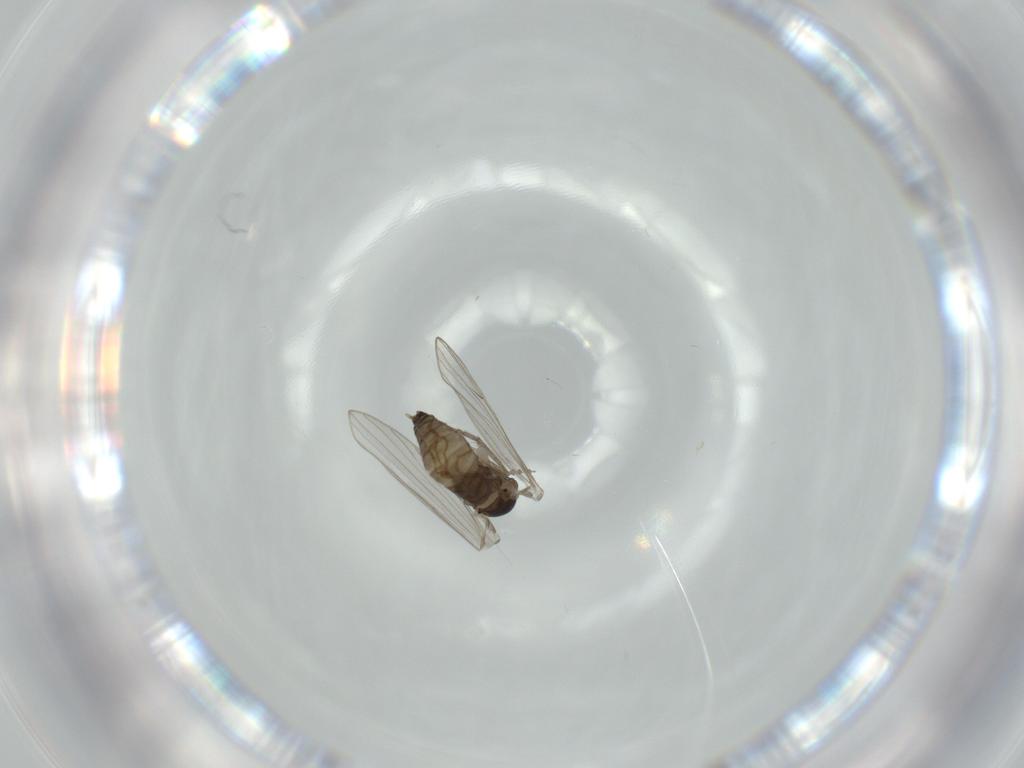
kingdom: Animalia
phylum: Arthropoda
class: Insecta
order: Diptera
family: Psychodidae
